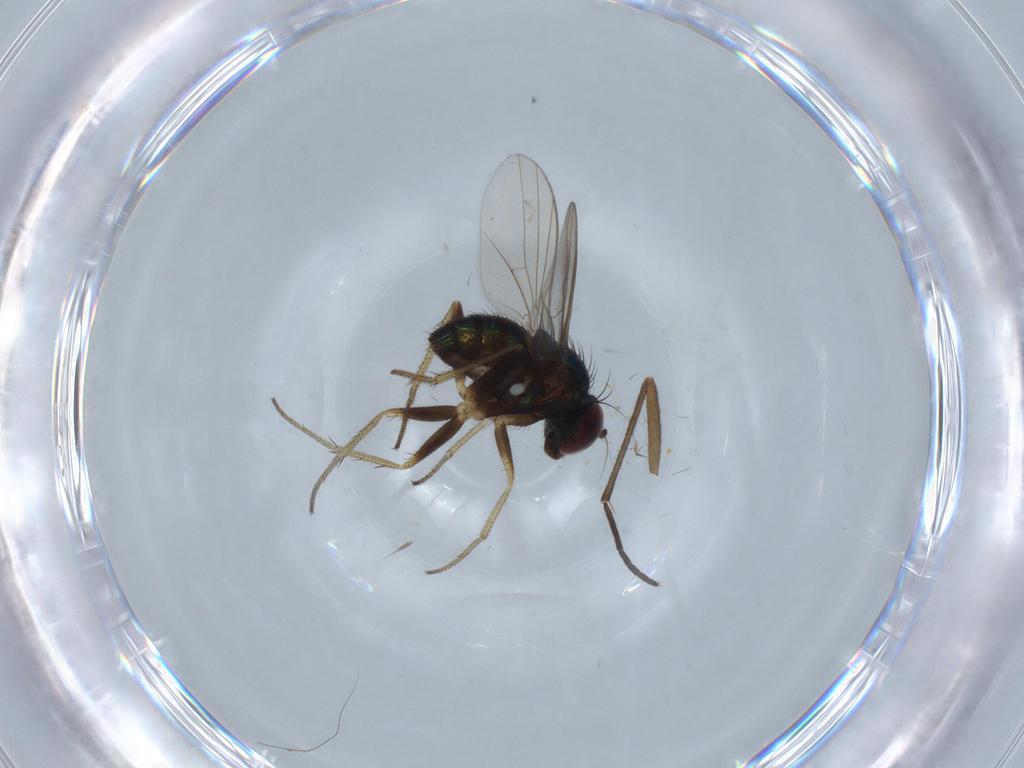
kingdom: Animalia
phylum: Arthropoda
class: Insecta
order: Diptera
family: Sciaridae
